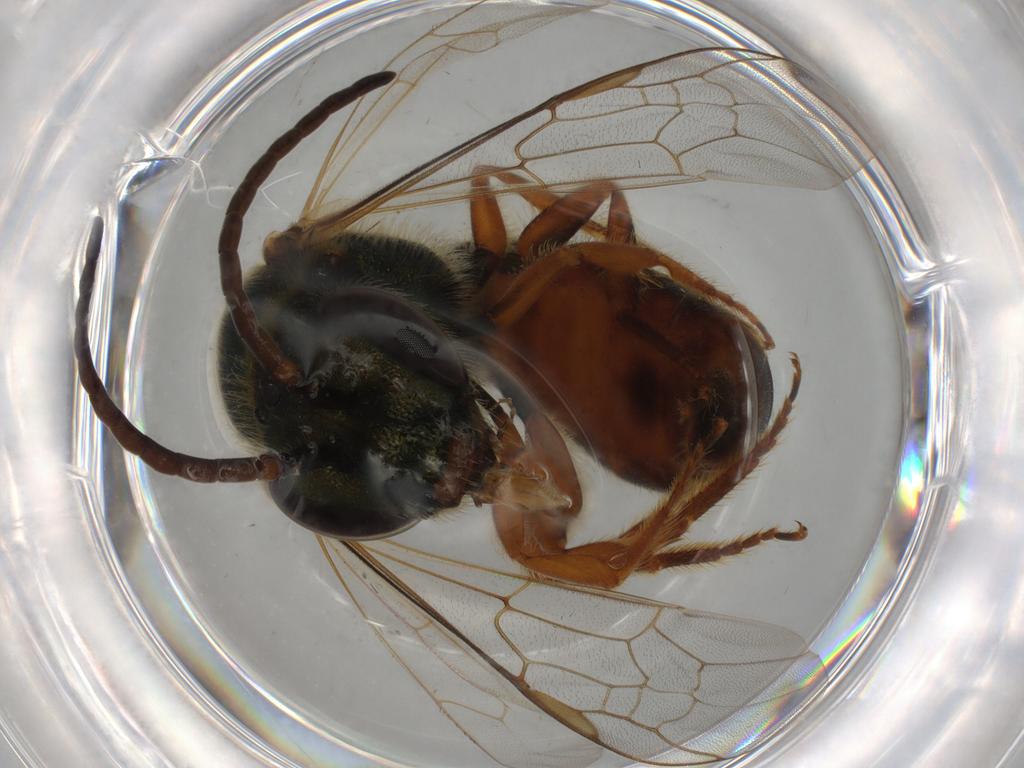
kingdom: Animalia
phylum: Arthropoda
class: Insecta
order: Hymenoptera
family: Halictidae
